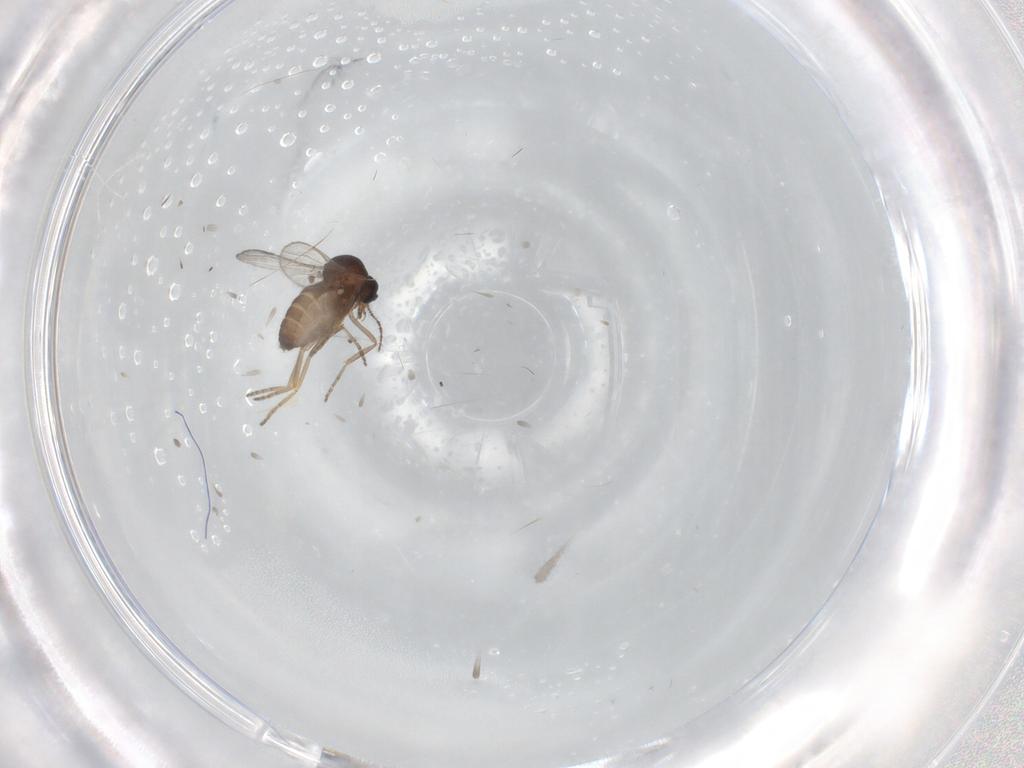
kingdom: Animalia
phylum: Arthropoda
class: Insecta
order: Diptera
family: Ceratopogonidae
